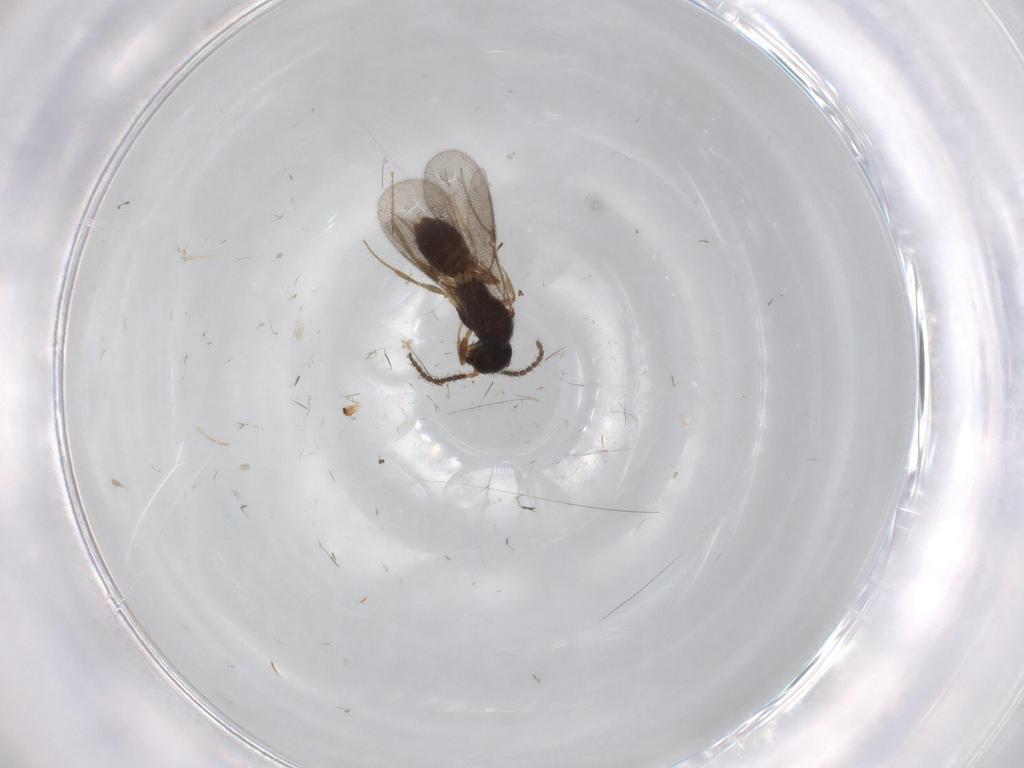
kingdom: Animalia
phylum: Arthropoda
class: Insecta
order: Hymenoptera
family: Bethylidae
